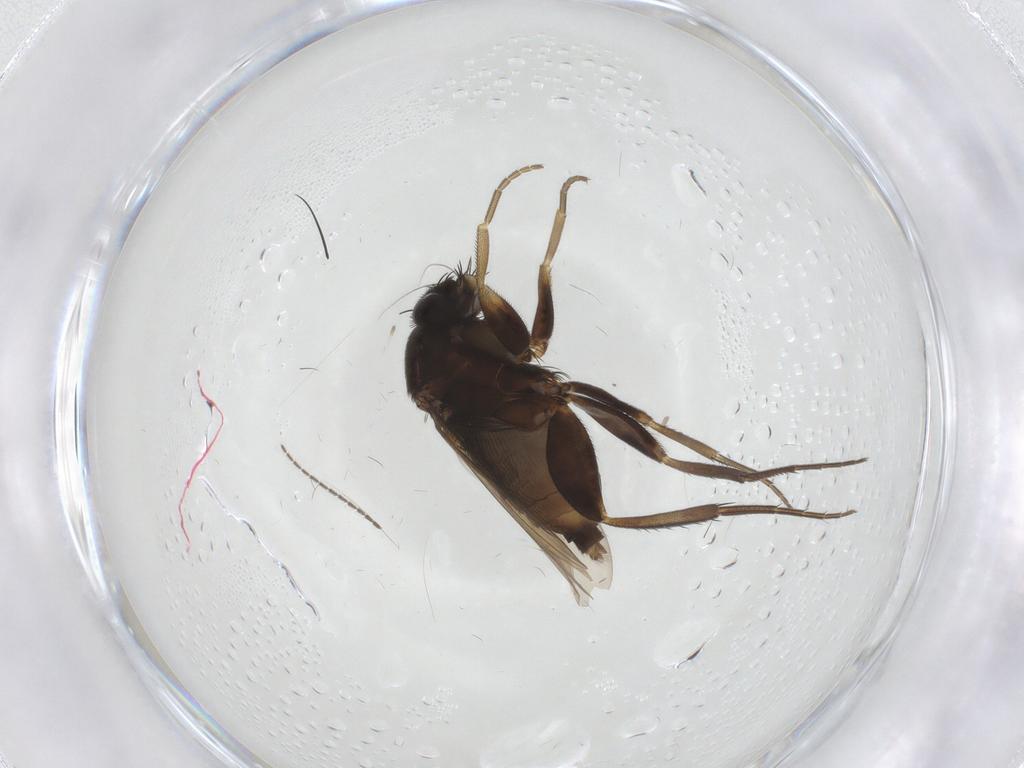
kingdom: Animalia
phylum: Arthropoda
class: Insecta
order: Diptera
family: Phoridae
